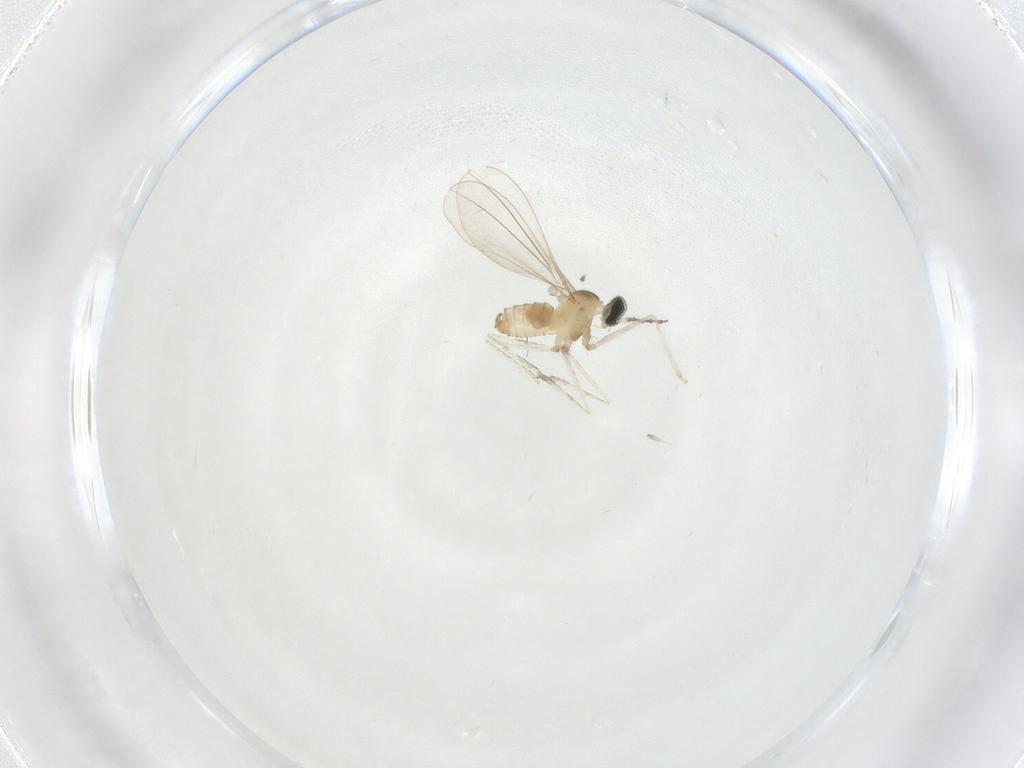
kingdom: Animalia
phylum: Arthropoda
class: Insecta
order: Diptera
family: Cecidomyiidae
